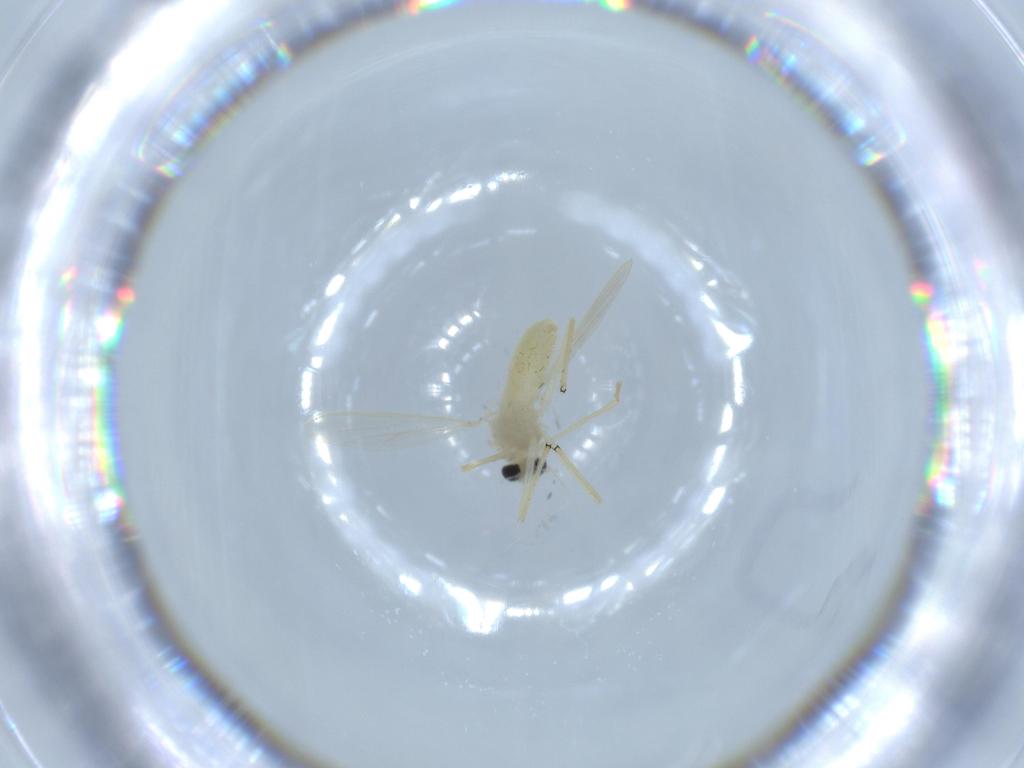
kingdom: Animalia
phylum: Arthropoda
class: Insecta
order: Diptera
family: Chironomidae
